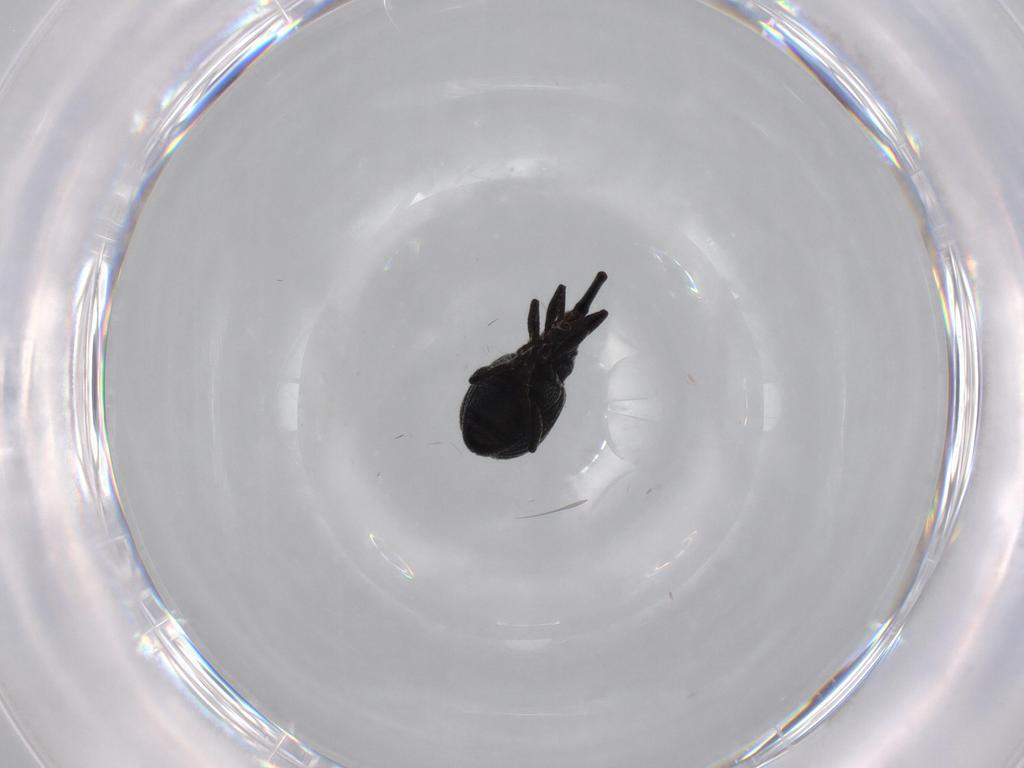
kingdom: Animalia
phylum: Arthropoda
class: Insecta
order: Coleoptera
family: Brentidae
